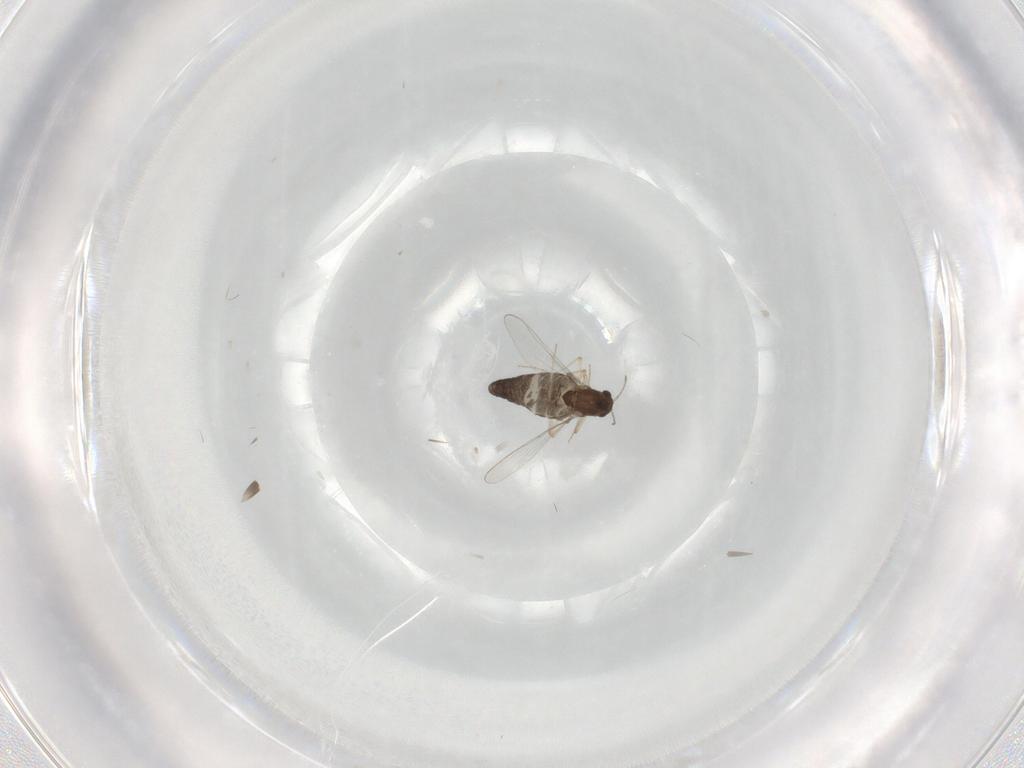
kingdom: Animalia
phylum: Arthropoda
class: Insecta
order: Diptera
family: Chironomidae
